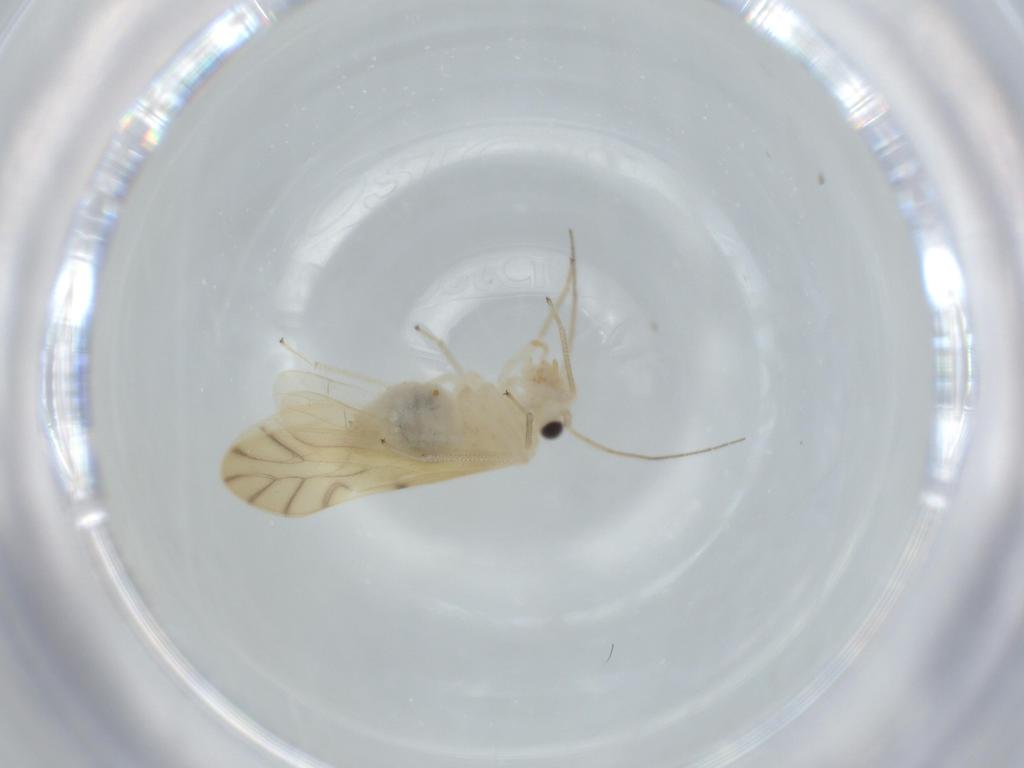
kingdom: Animalia
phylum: Arthropoda
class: Insecta
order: Psocodea
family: Caeciliusidae
